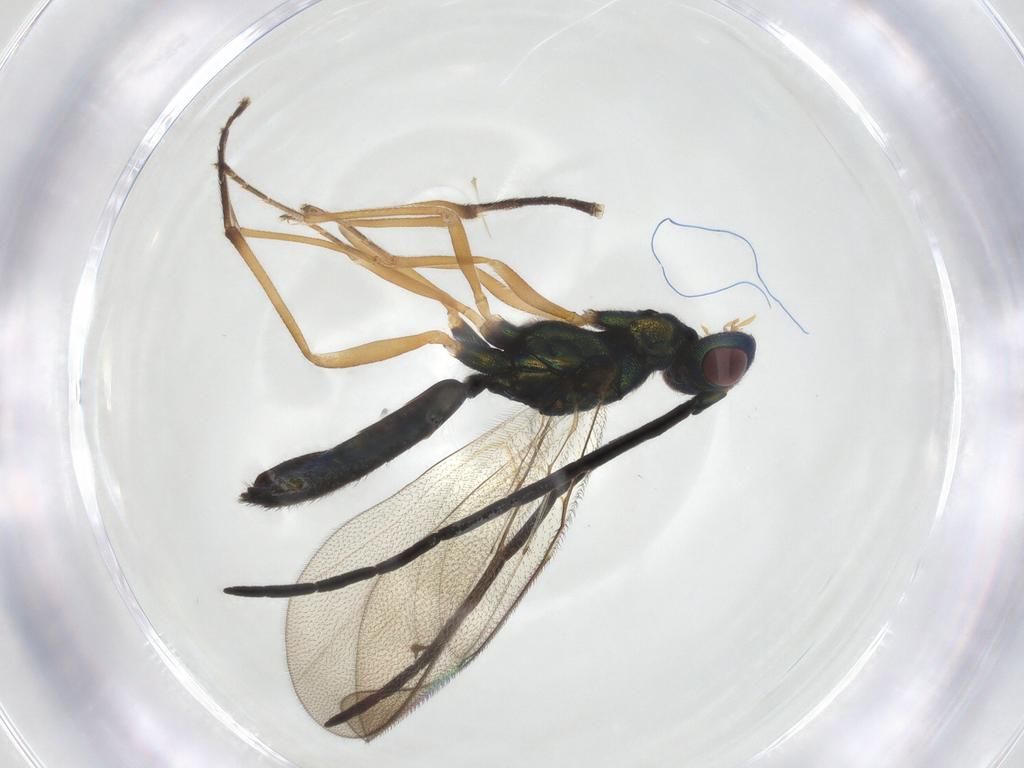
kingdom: Animalia
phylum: Arthropoda
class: Insecta
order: Hymenoptera
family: Pteromalidae
